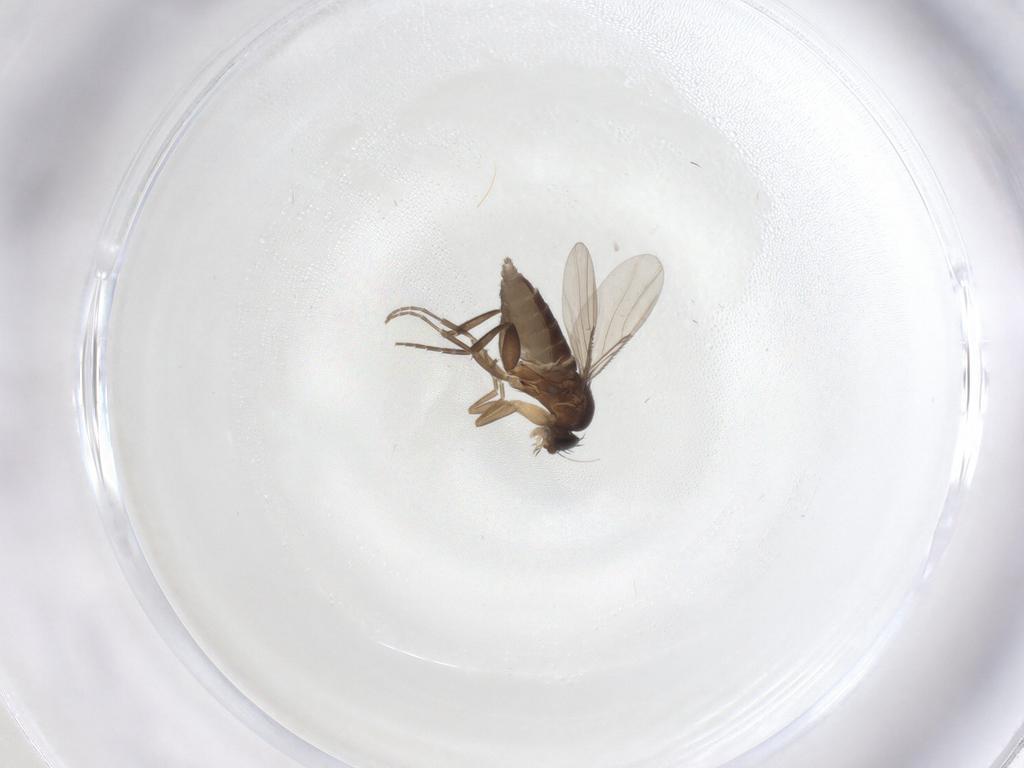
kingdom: Animalia
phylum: Arthropoda
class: Insecta
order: Diptera
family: Phoridae
